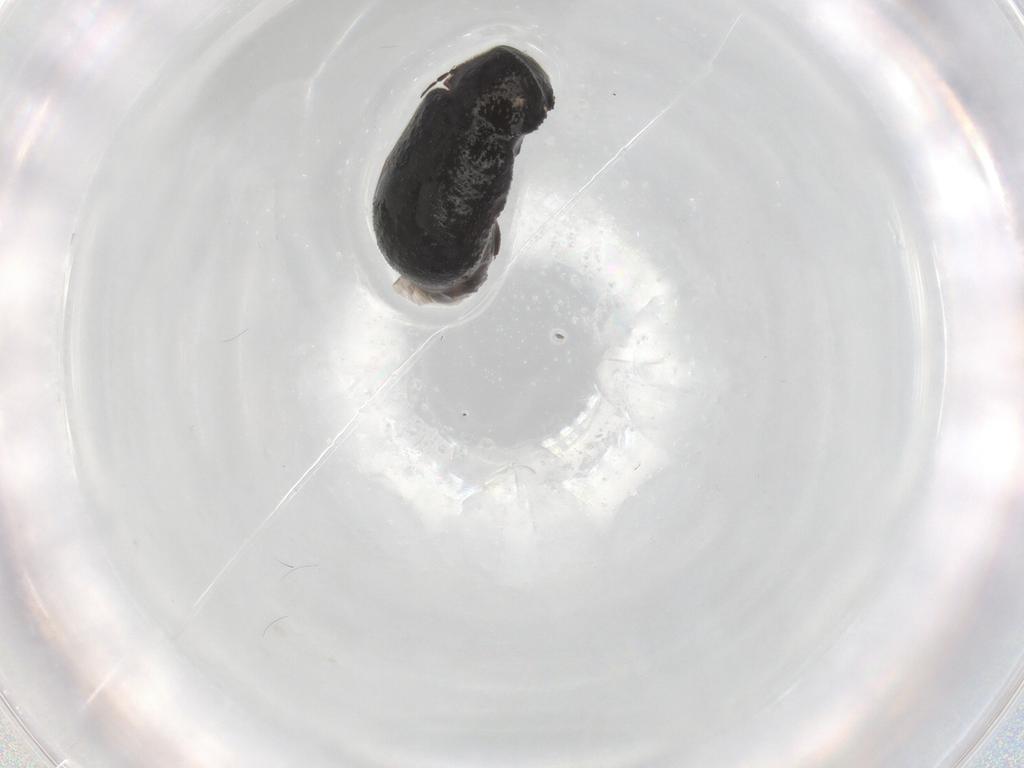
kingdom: Animalia
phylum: Arthropoda
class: Insecta
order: Coleoptera
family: Ptinidae
